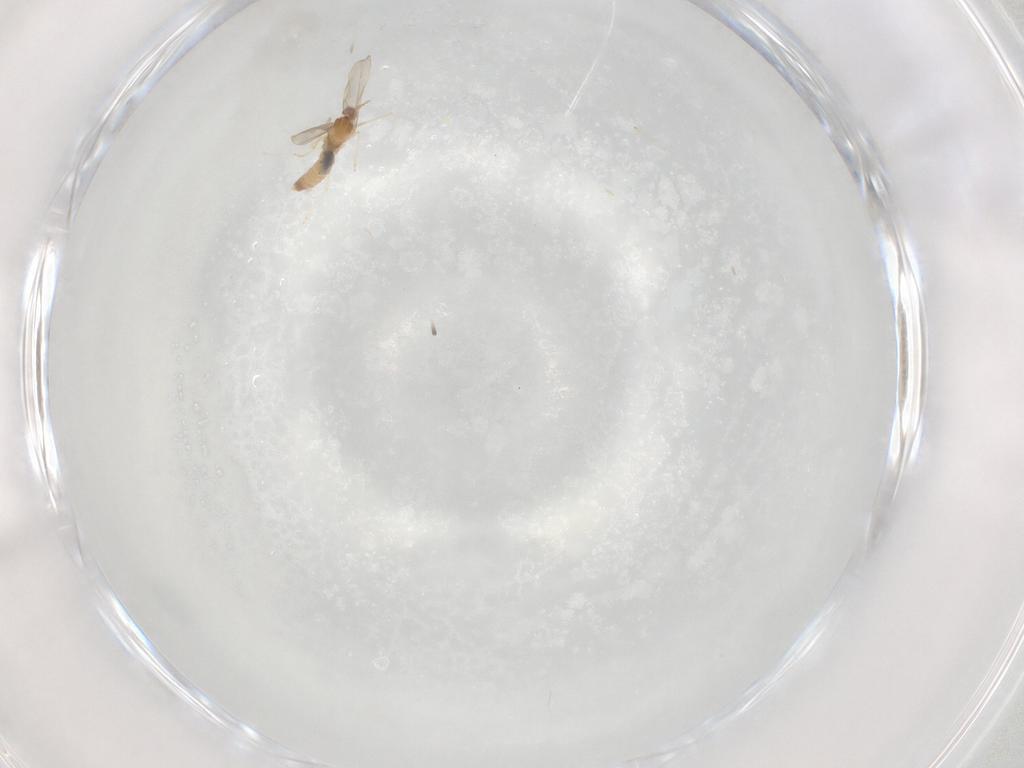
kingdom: Animalia
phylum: Arthropoda
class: Insecta
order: Diptera
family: Cecidomyiidae
